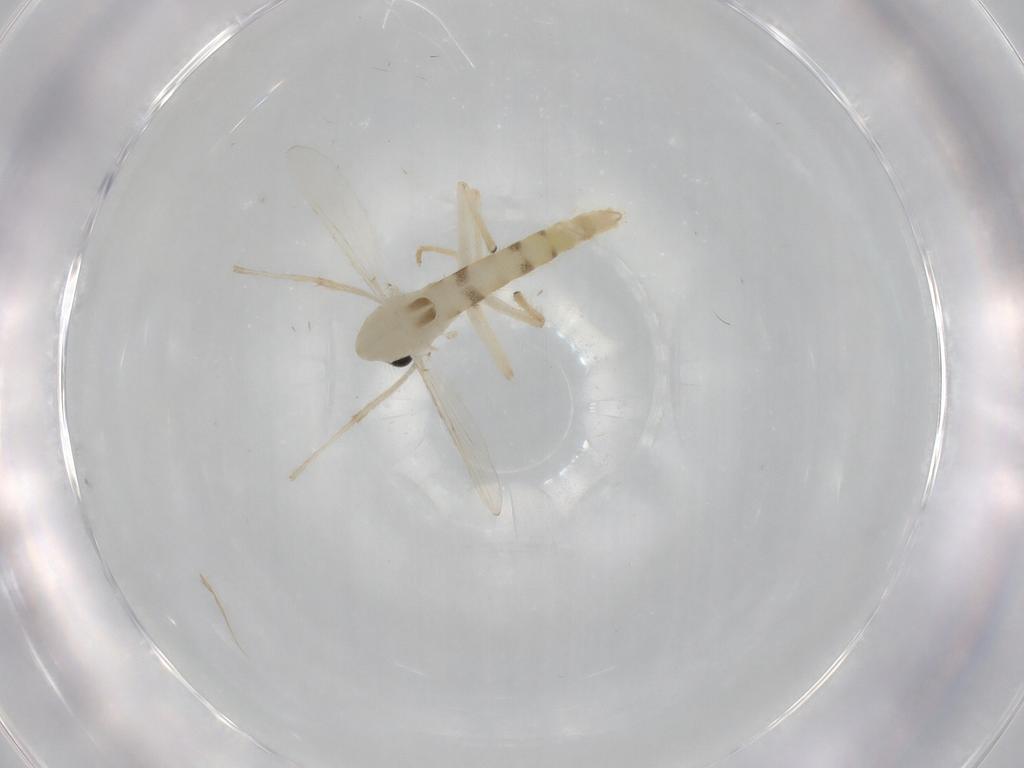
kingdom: Animalia
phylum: Arthropoda
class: Insecta
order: Diptera
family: Chironomidae
